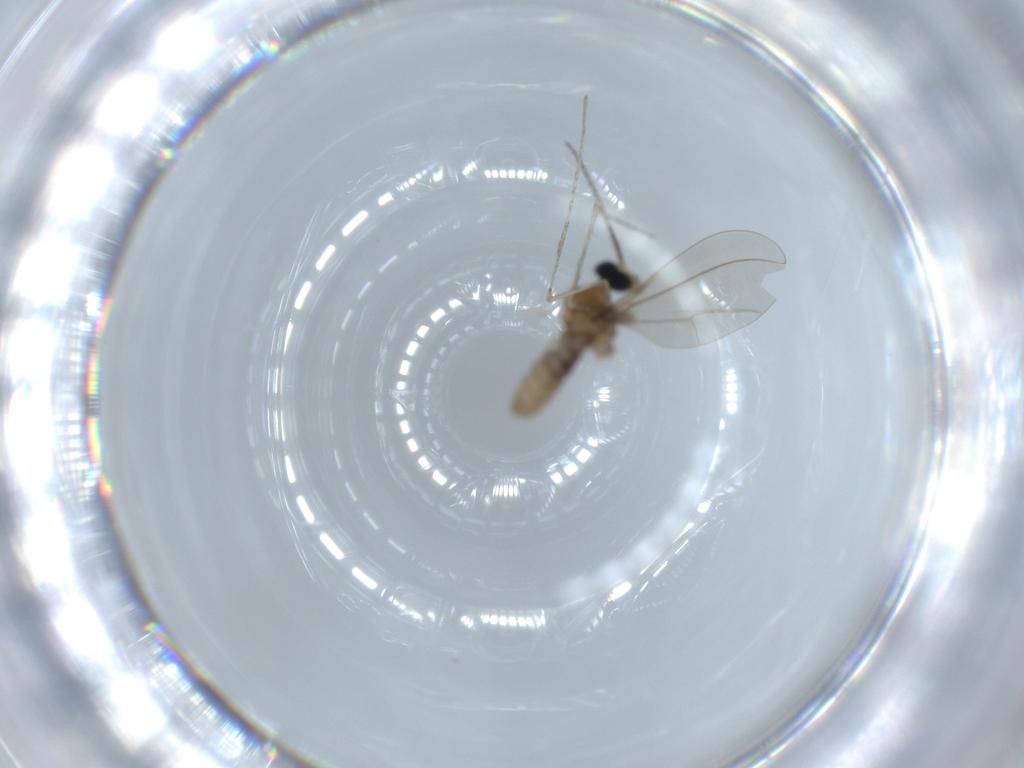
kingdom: Animalia
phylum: Arthropoda
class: Insecta
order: Diptera
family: Cecidomyiidae
